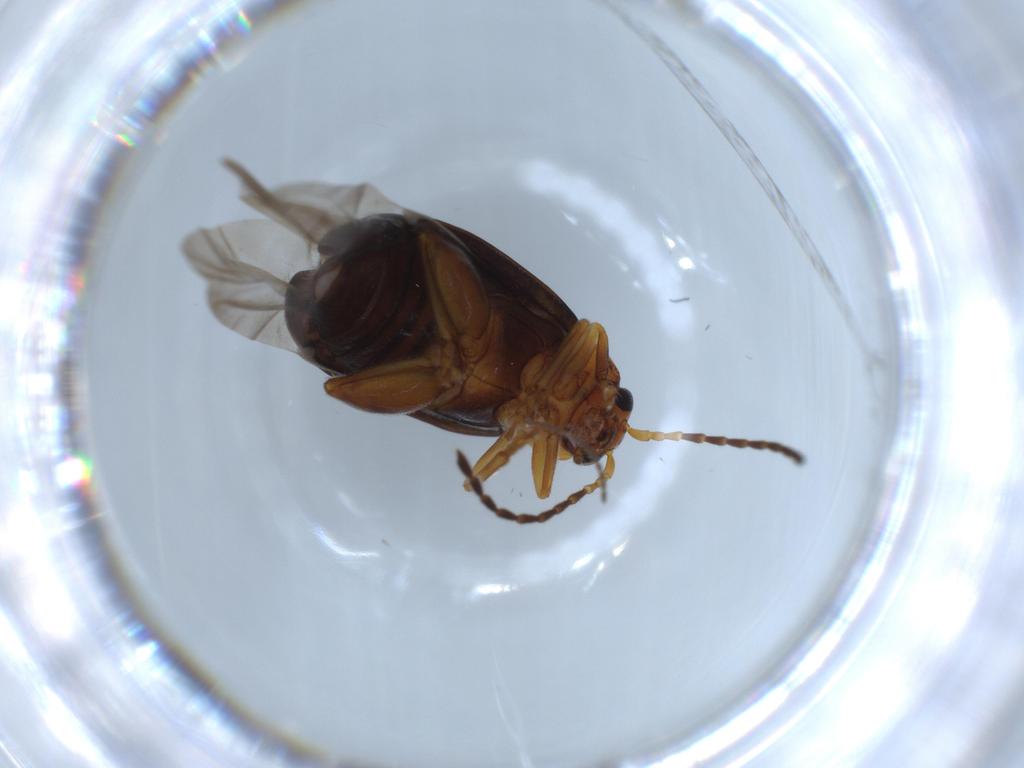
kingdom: Animalia
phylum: Arthropoda
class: Insecta
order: Coleoptera
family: Chrysomelidae
